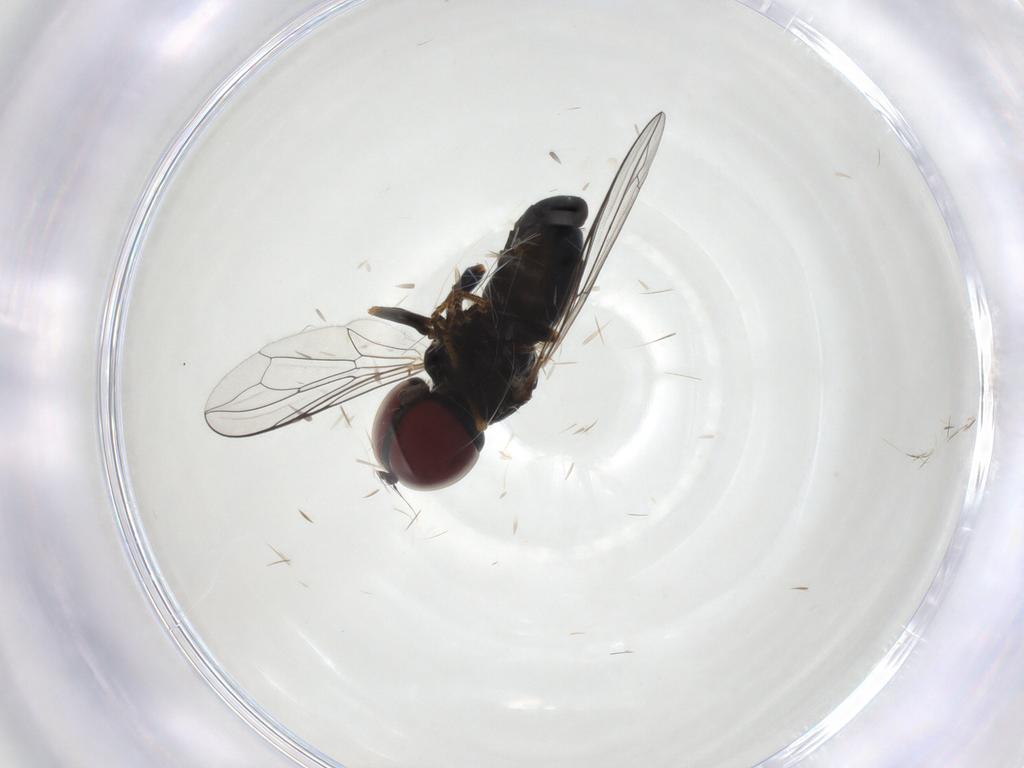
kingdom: Animalia
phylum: Arthropoda
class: Insecta
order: Diptera
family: Pipunculidae
